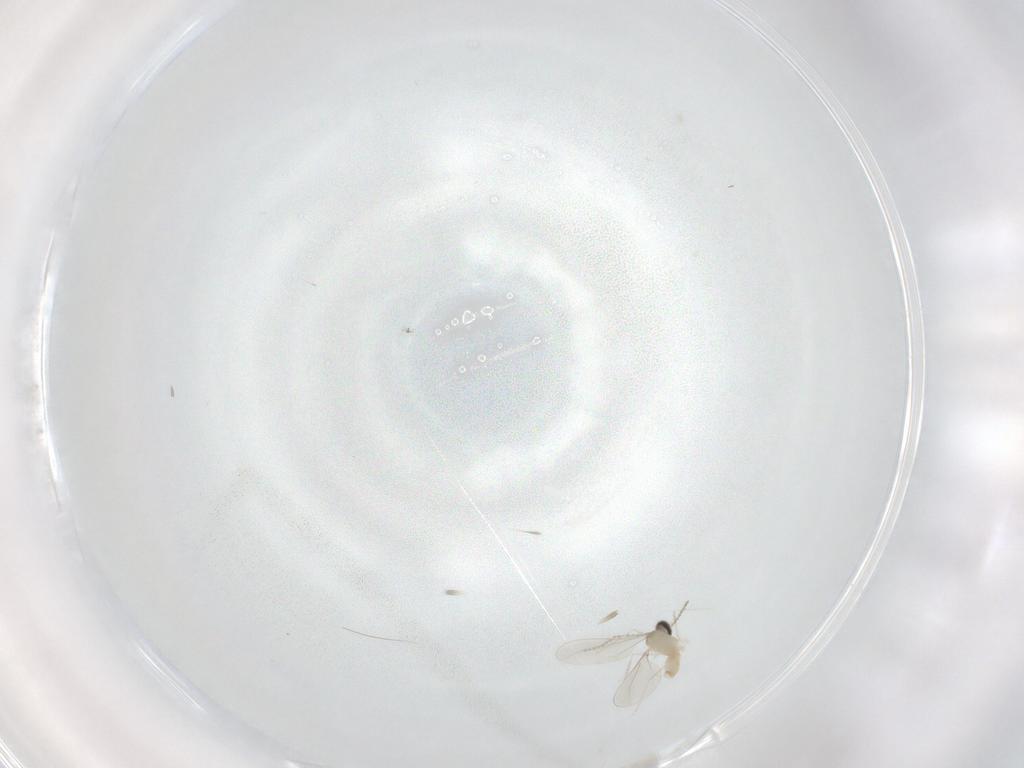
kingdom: Animalia
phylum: Arthropoda
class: Insecta
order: Diptera
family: Cecidomyiidae
